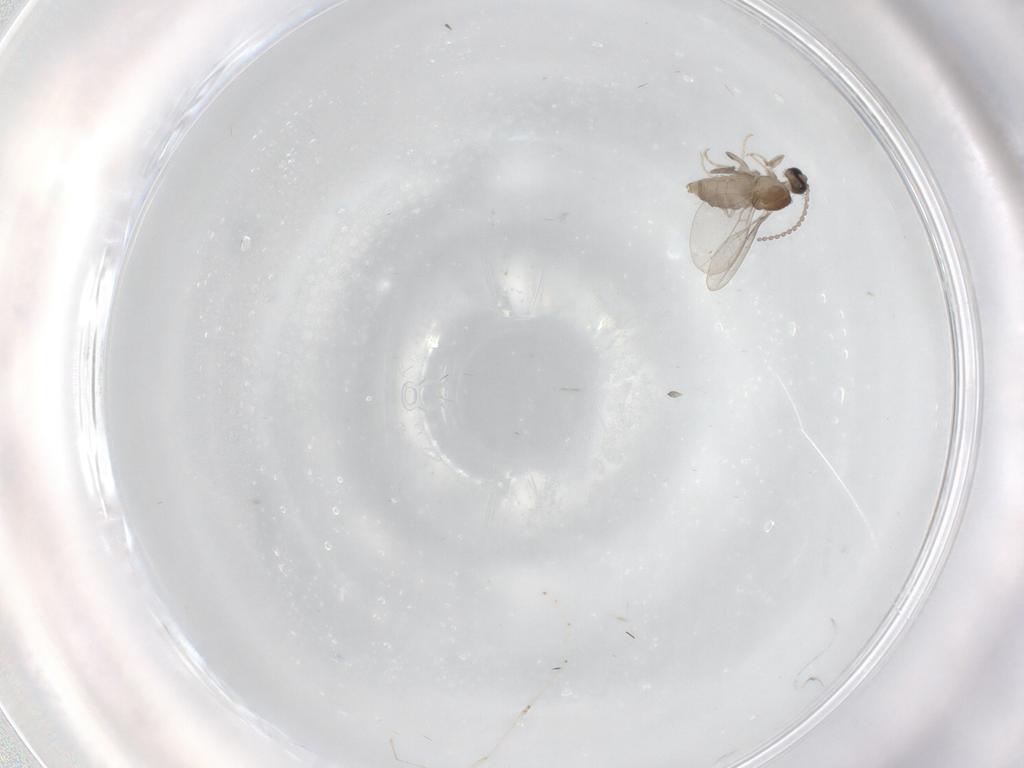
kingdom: Animalia
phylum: Arthropoda
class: Insecta
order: Diptera
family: Cecidomyiidae
